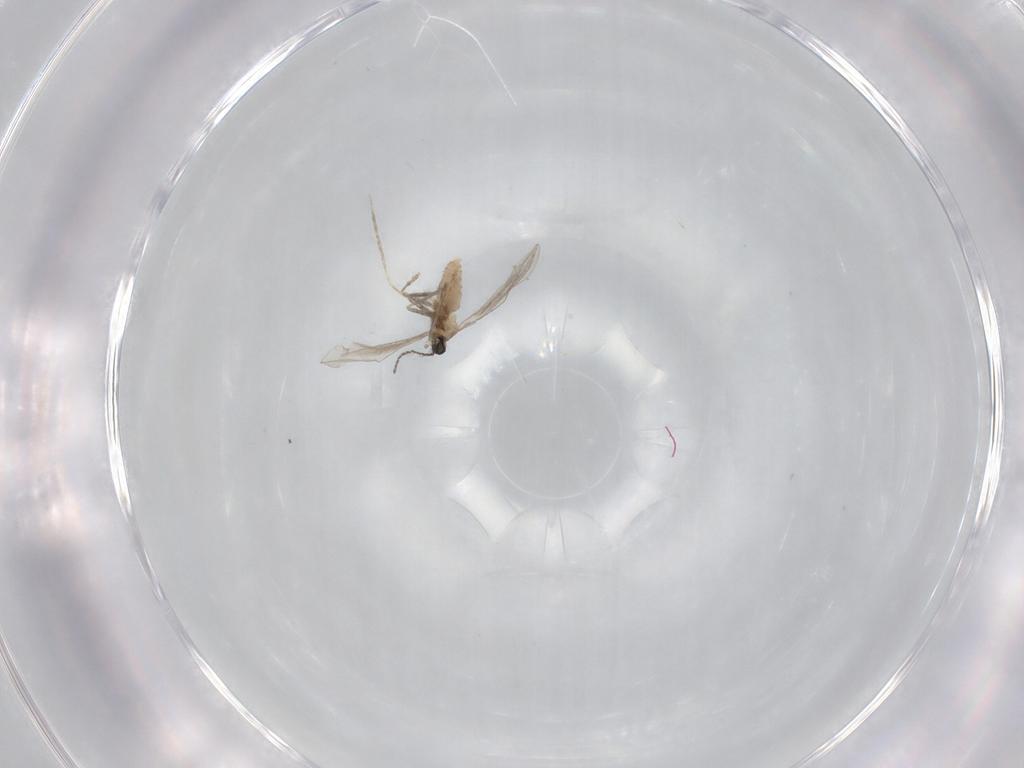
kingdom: Animalia
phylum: Arthropoda
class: Insecta
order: Diptera
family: Cecidomyiidae
